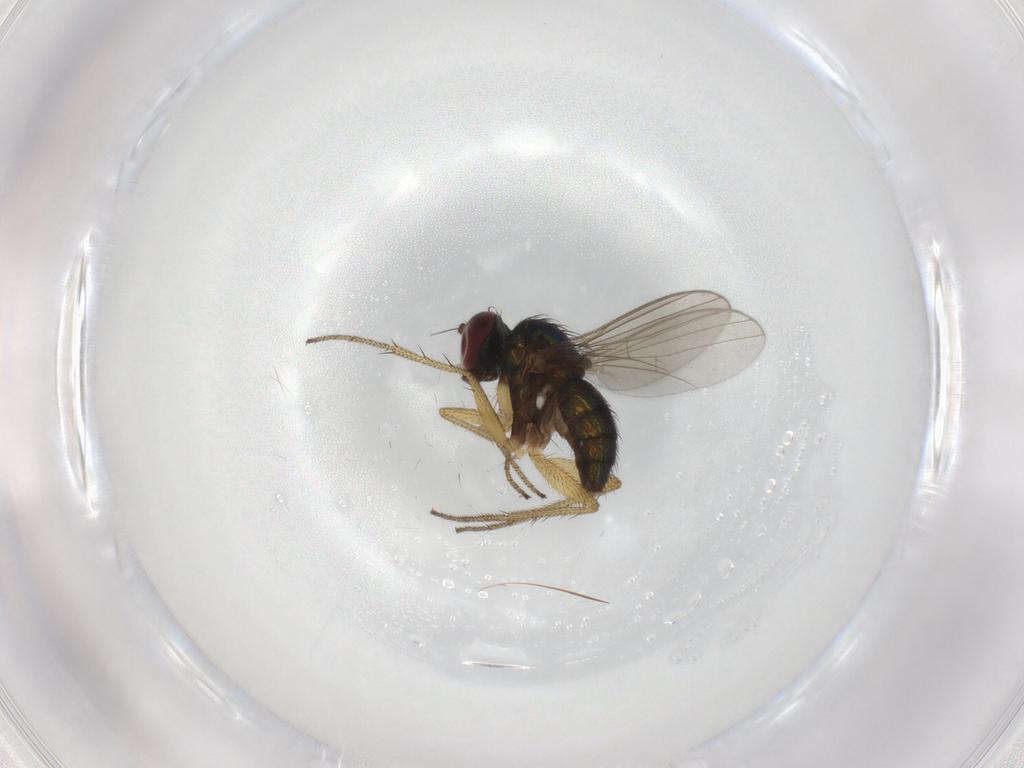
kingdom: Animalia
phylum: Arthropoda
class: Insecta
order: Diptera
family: Dolichopodidae
